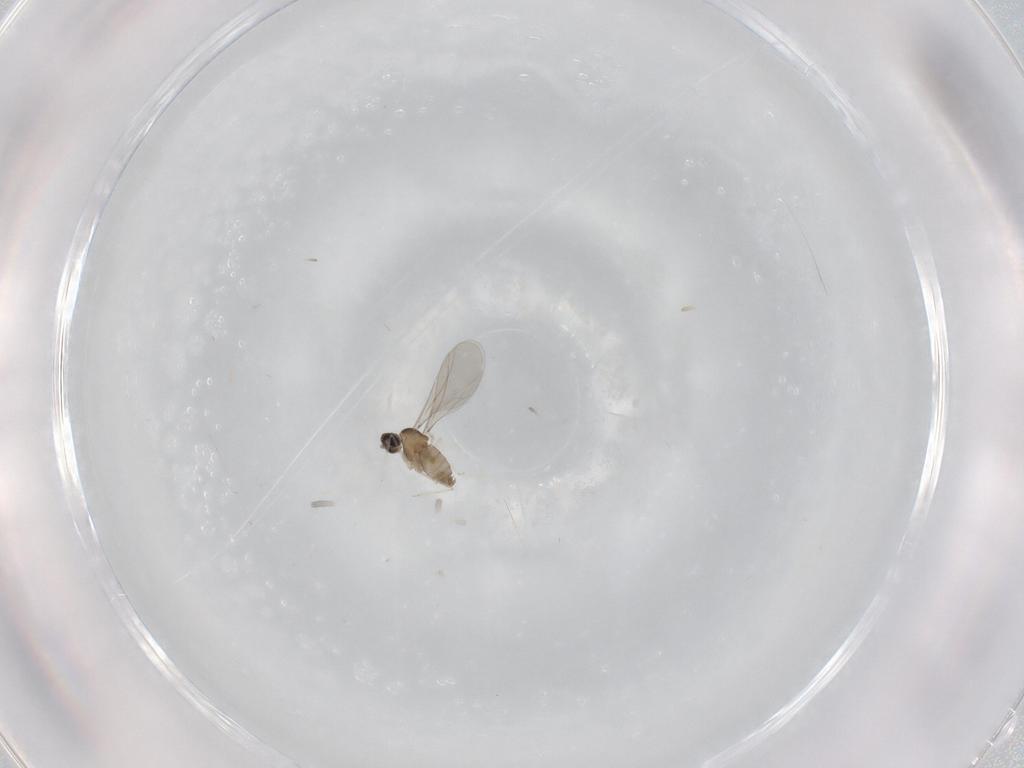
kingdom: Animalia
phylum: Arthropoda
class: Insecta
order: Diptera
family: Cecidomyiidae
